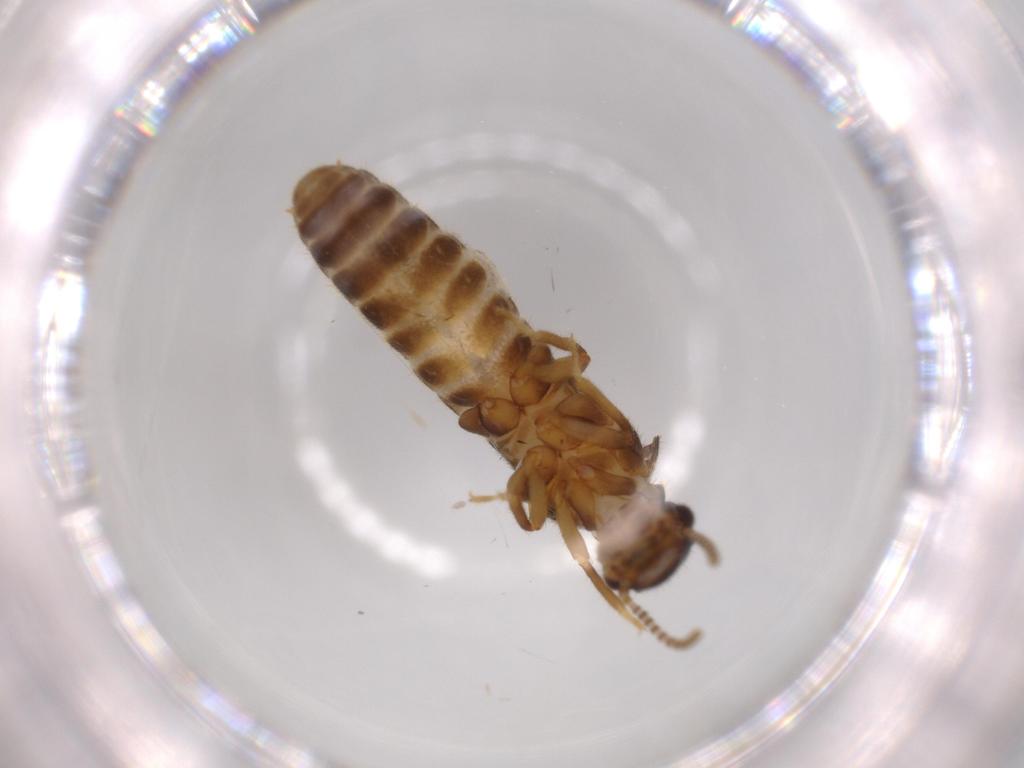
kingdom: Animalia
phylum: Arthropoda
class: Insecta
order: Blattodea
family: Termitidae
